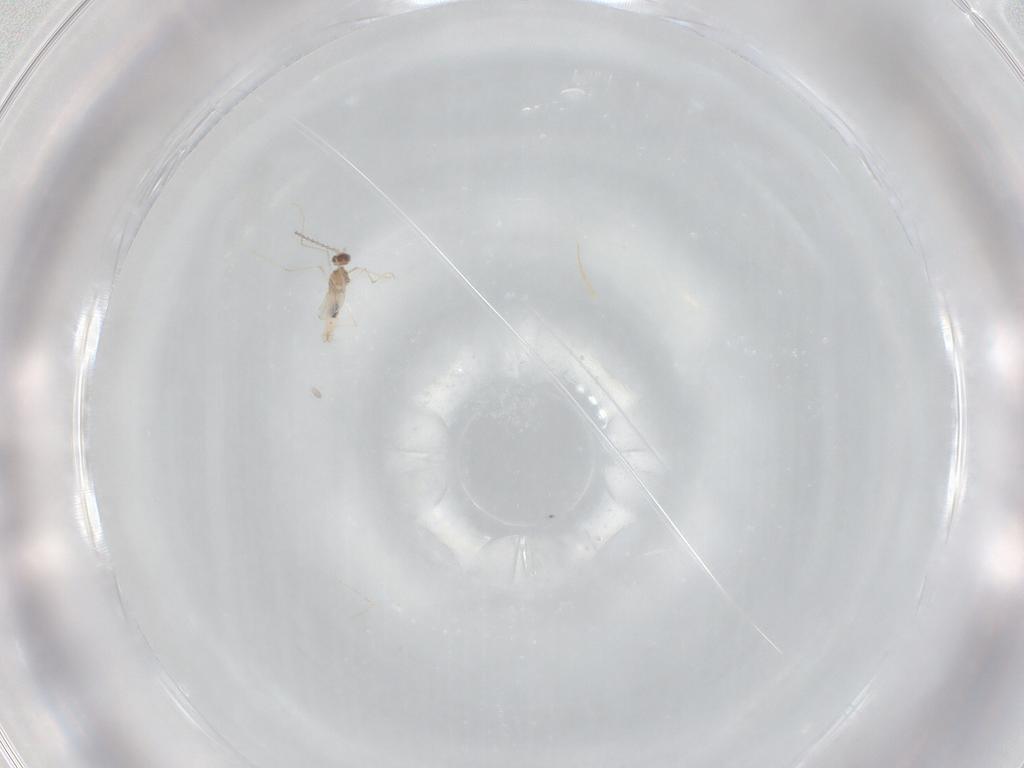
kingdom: Animalia
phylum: Arthropoda
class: Insecta
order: Diptera
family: Cecidomyiidae
